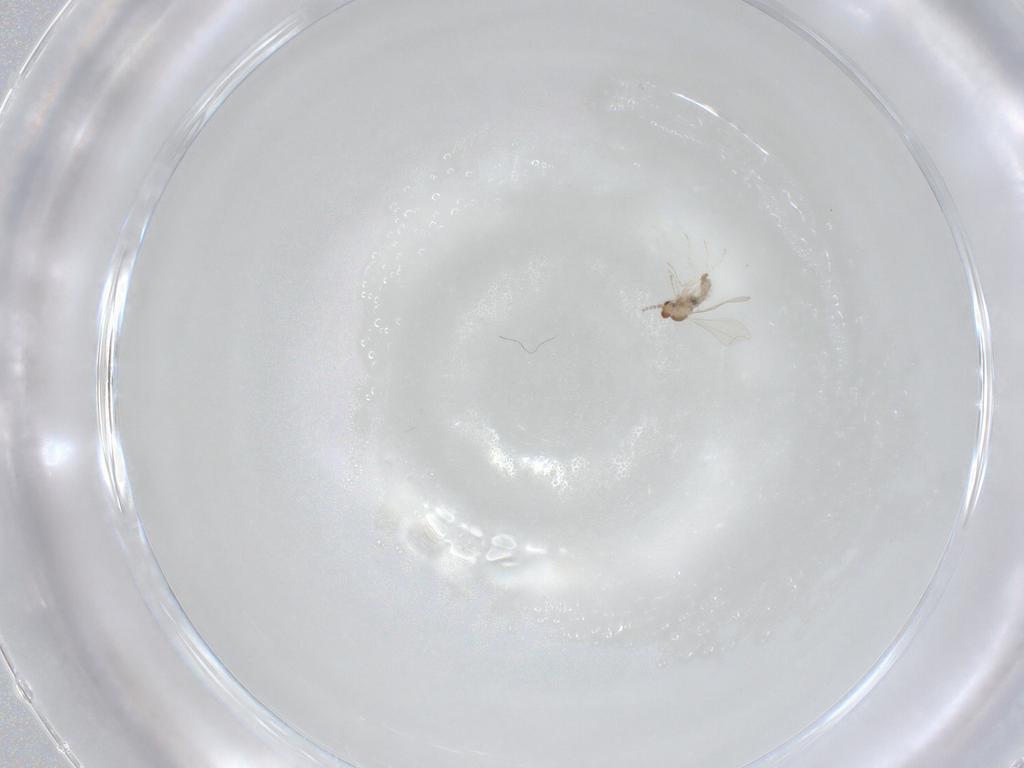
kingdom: Animalia
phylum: Arthropoda
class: Insecta
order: Diptera
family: Cecidomyiidae
